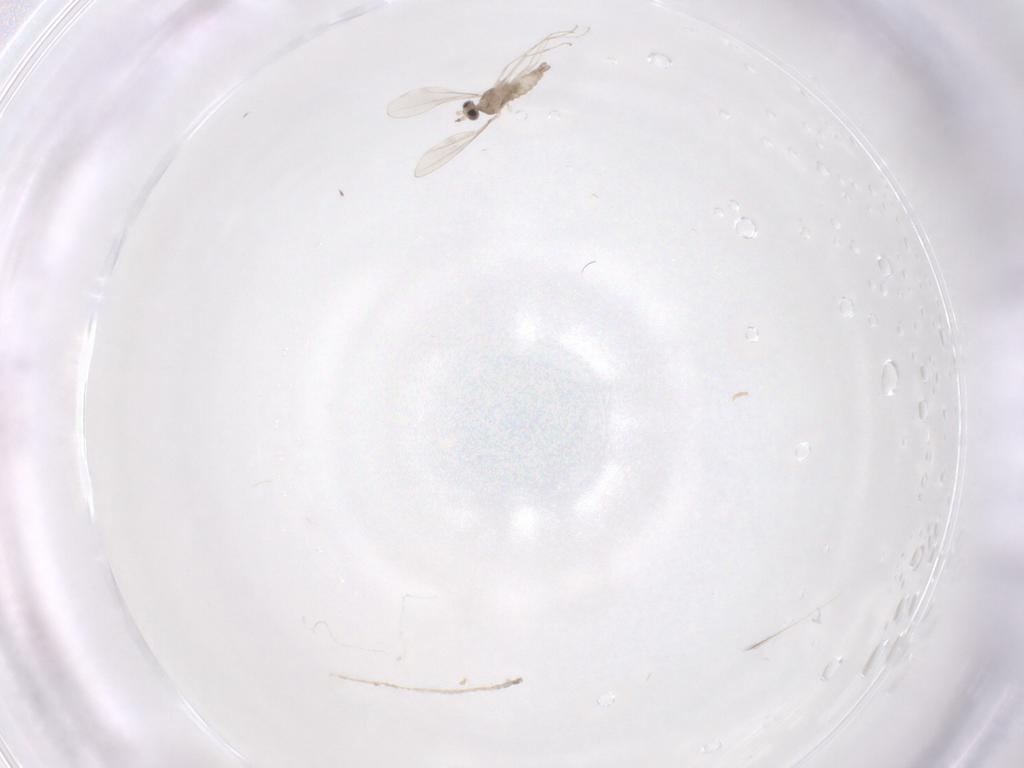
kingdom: Animalia
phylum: Arthropoda
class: Insecta
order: Diptera
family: Cecidomyiidae
